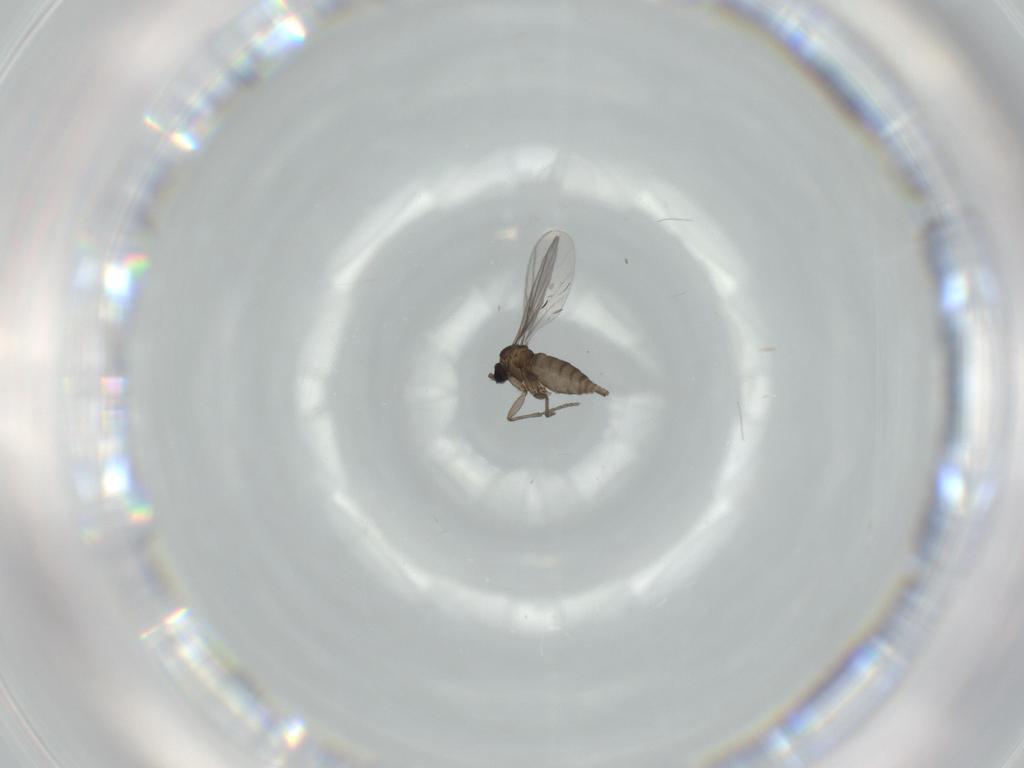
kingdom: Animalia
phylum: Arthropoda
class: Insecta
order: Diptera
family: Sciaridae
